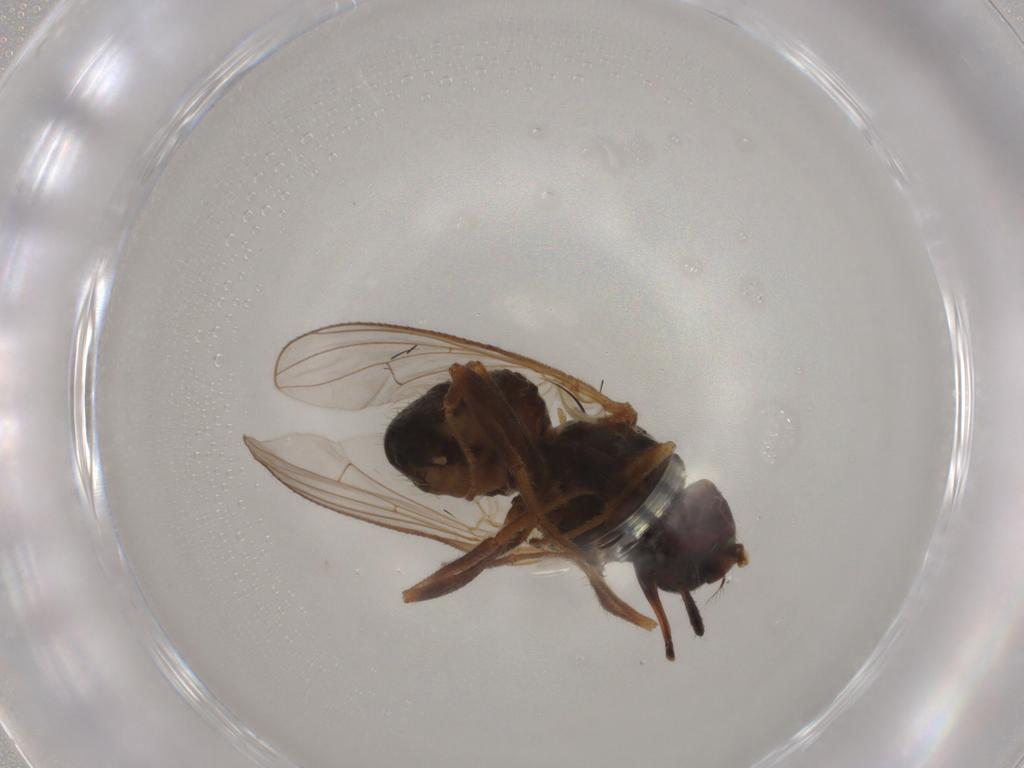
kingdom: Animalia
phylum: Arthropoda
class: Insecta
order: Diptera
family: Muscidae
